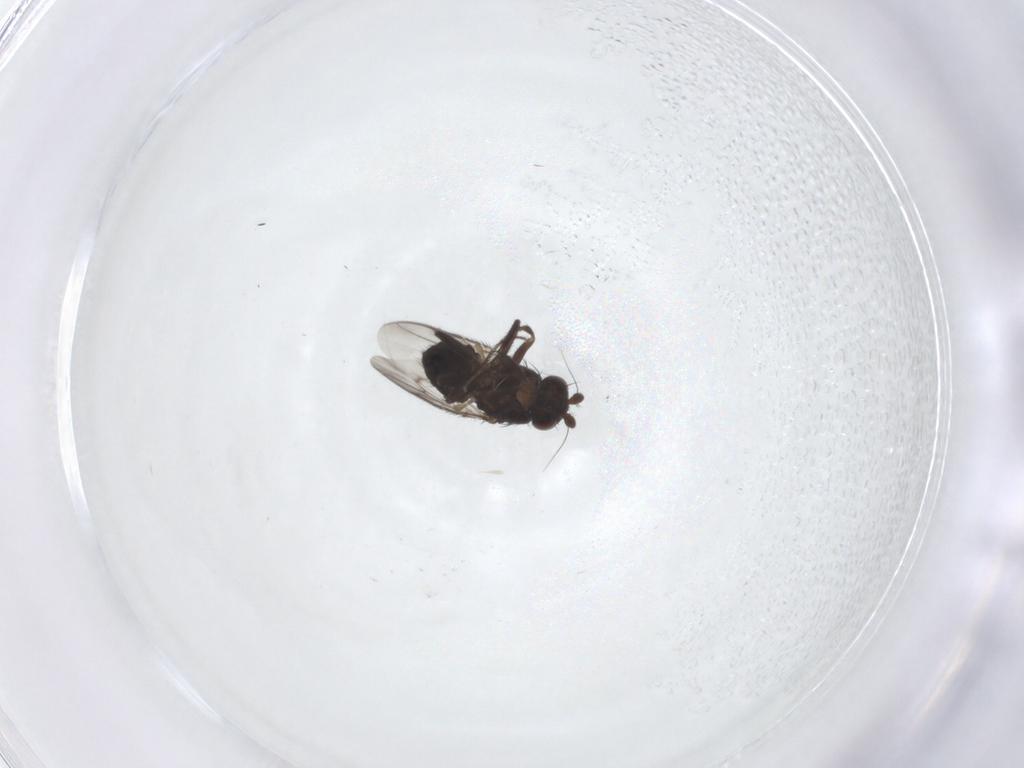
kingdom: Animalia
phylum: Arthropoda
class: Insecta
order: Diptera
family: Sphaeroceridae
